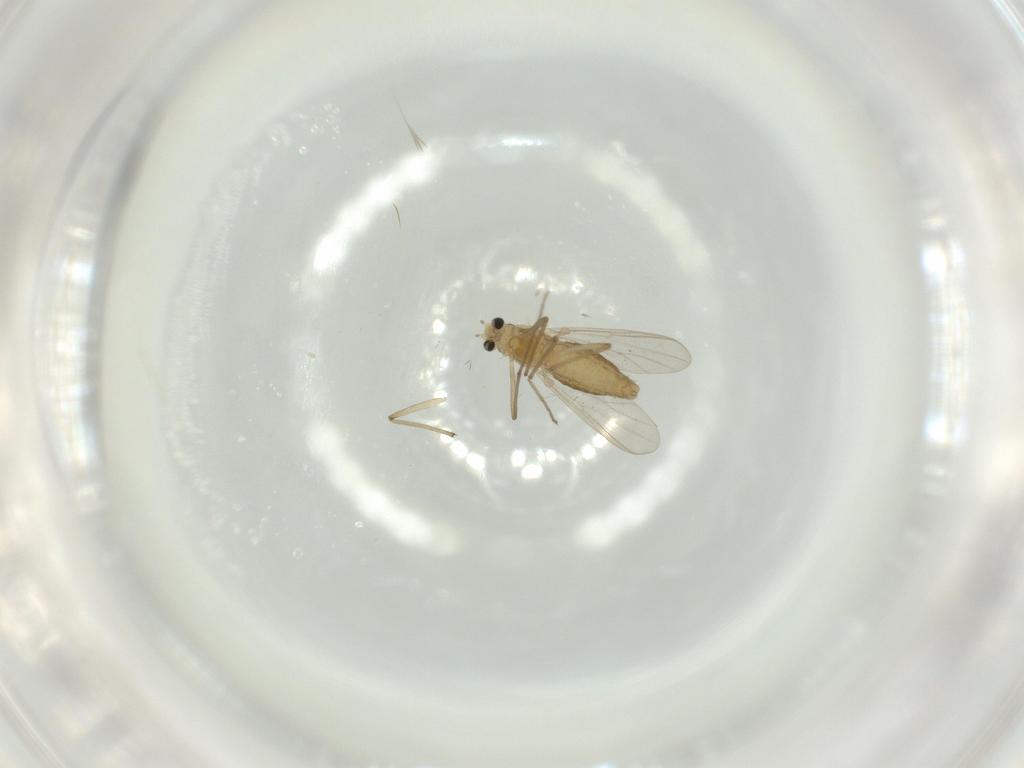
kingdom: Animalia
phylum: Arthropoda
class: Insecta
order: Diptera
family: Chironomidae
